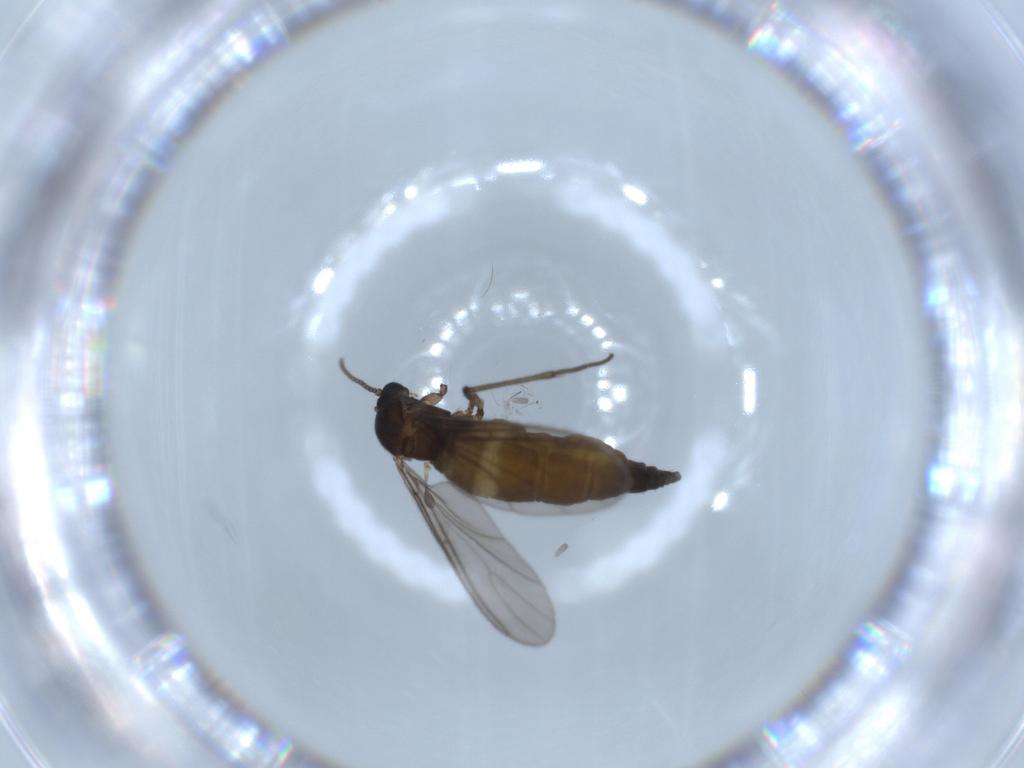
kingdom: Animalia
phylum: Arthropoda
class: Insecta
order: Diptera
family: Sciaridae
